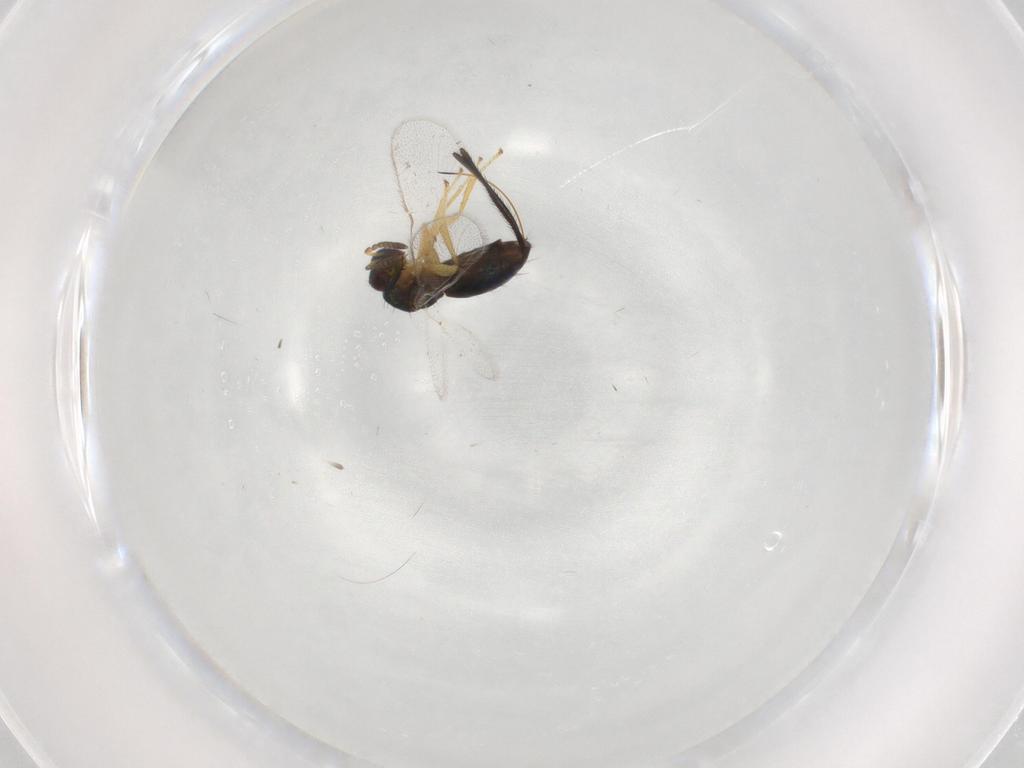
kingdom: Animalia
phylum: Arthropoda
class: Insecta
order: Hymenoptera
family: Torymidae
